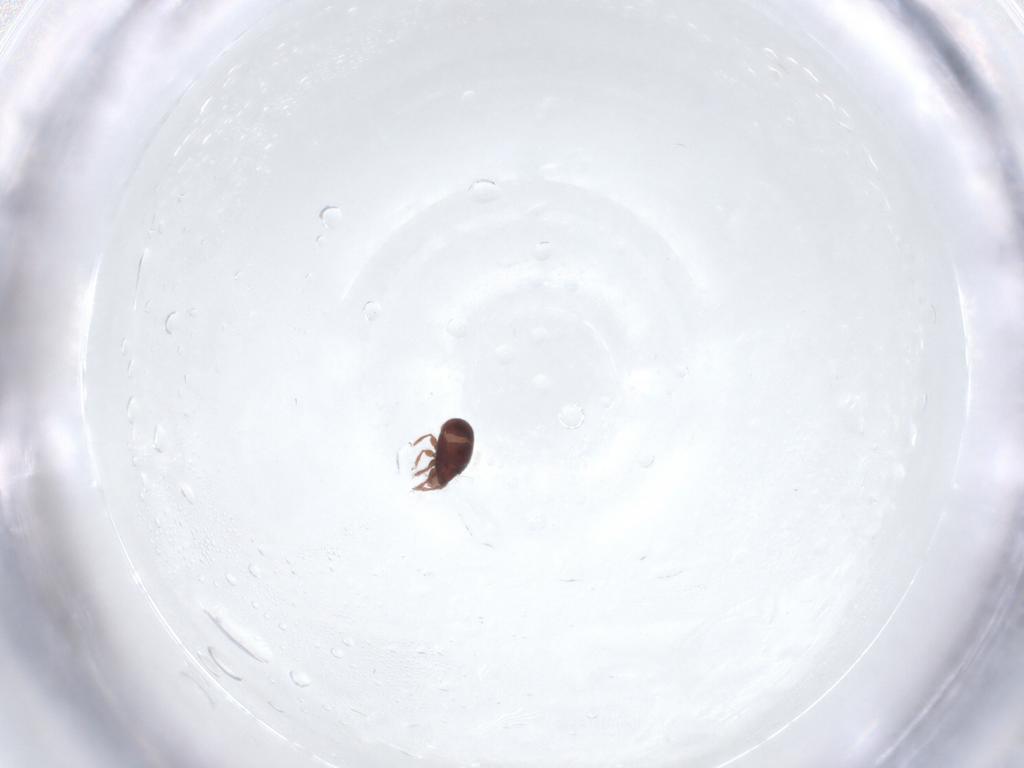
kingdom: Animalia
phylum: Arthropoda
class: Arachnida
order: Sarcoptiformes
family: Achipteriidae
